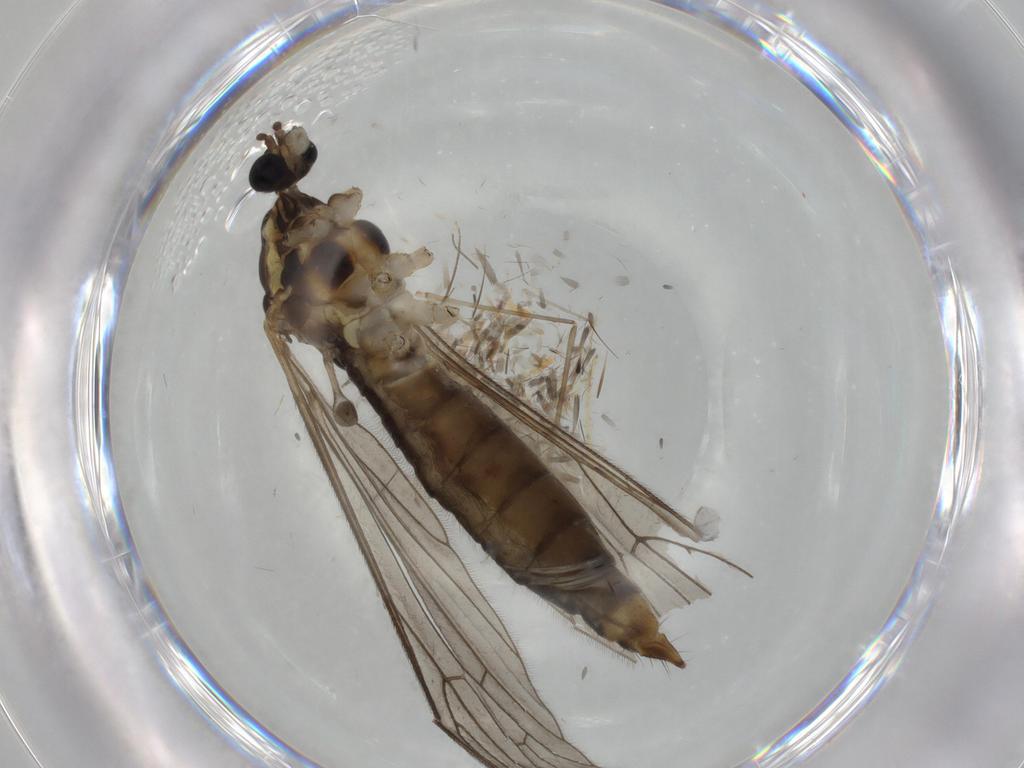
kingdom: Animalia
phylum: Arthropoda
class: Insecta
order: Diptera
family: Limoniidae
